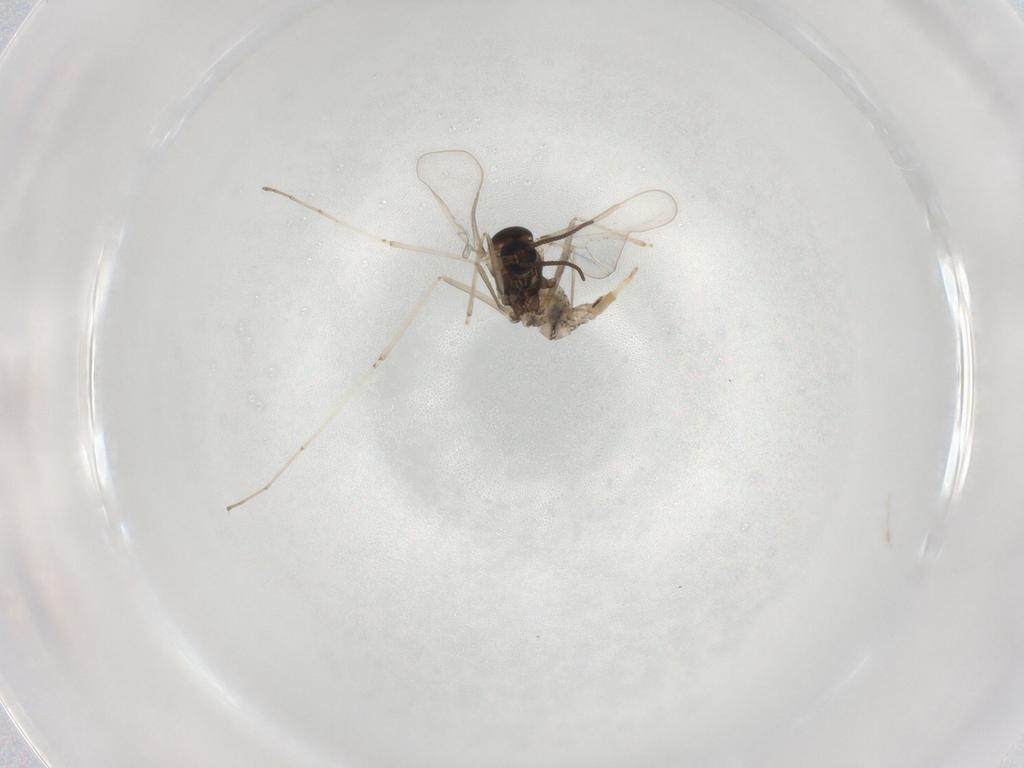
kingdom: Animalia
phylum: Arthropoda
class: Insecta
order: Diptera
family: Cecidomyiidae
